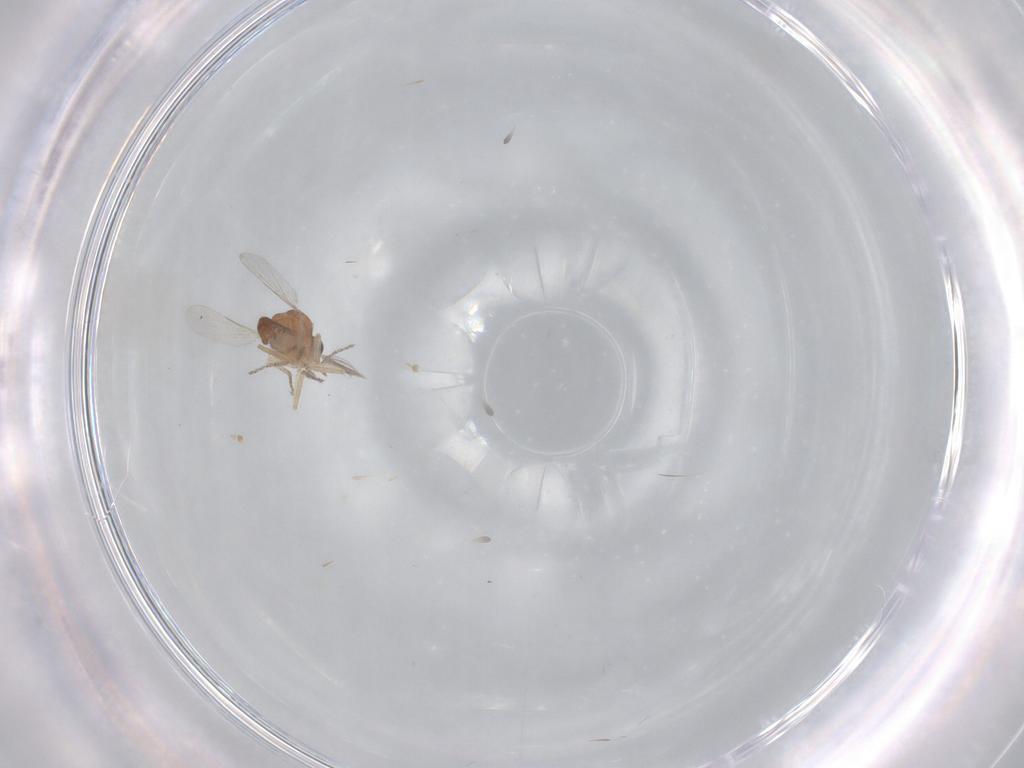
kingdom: Animalia
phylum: Arthropoda
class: Insecta
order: Diptera
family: Ceratopogonidae
